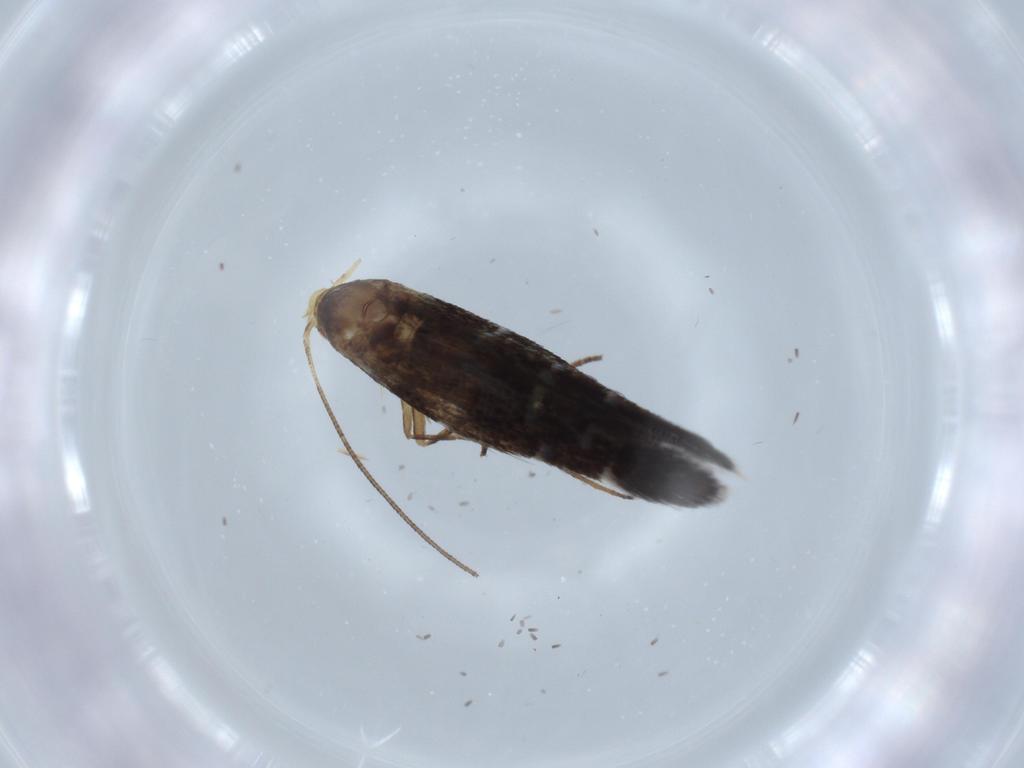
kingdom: Animalia
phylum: Arthropoda
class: Insecta
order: Lepidoptera
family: Cosmopterigidae
